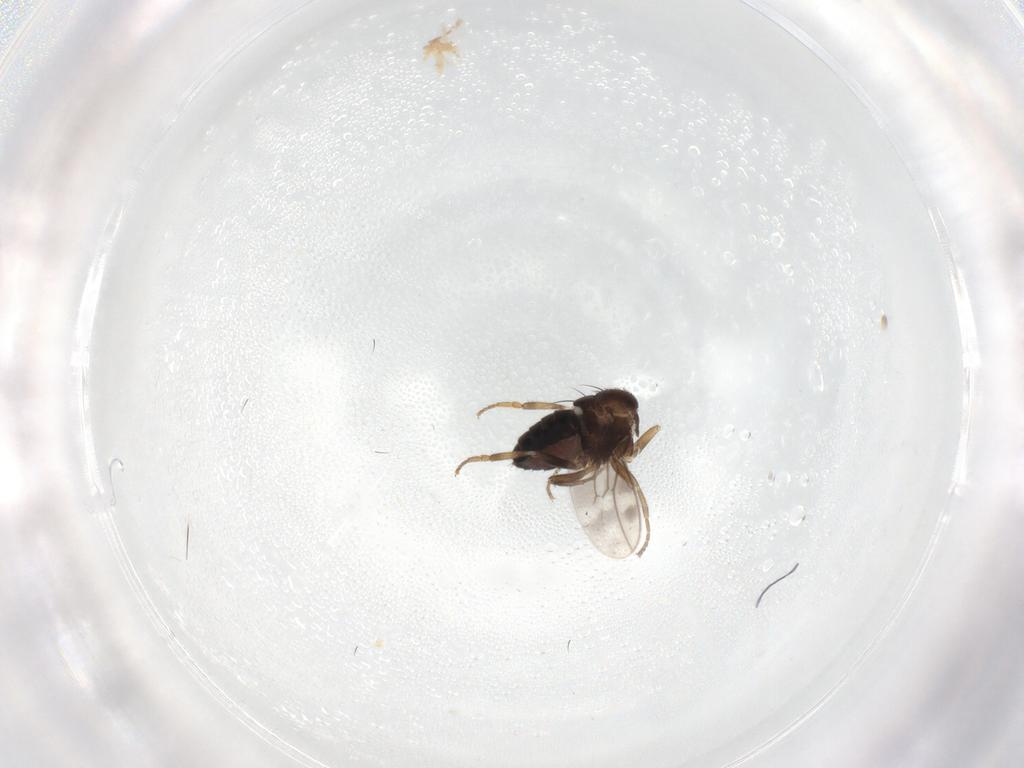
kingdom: Animalia
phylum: Arthropoda
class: Insecta
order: Diptera
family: Sphaeroceridae
